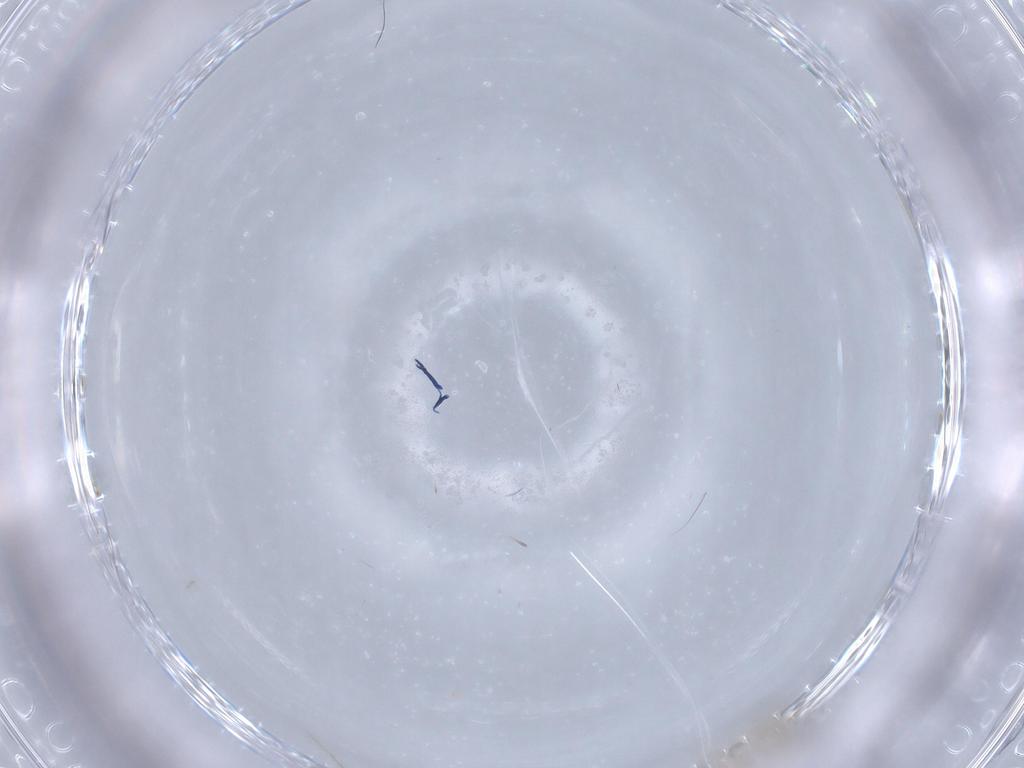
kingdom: Animalia
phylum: Arthropoda
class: Insecta
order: Diptera
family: Cecidomyiidae
